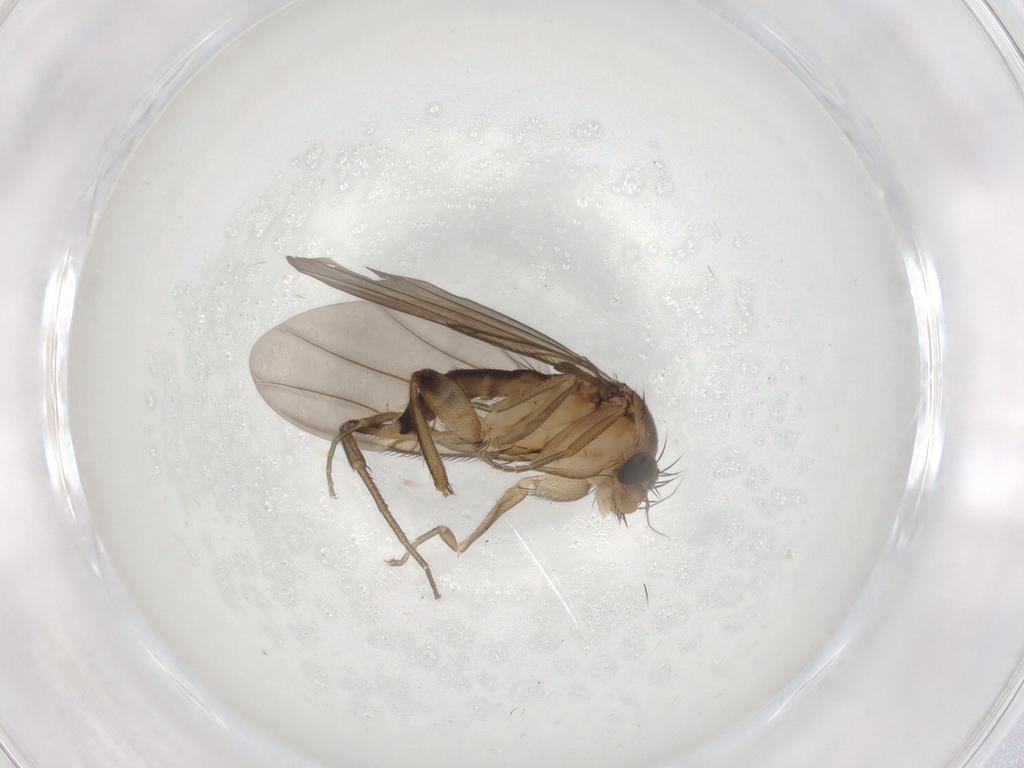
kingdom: Animalia
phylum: Arthropoda
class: Insecta
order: Diptera
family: Phoridae
